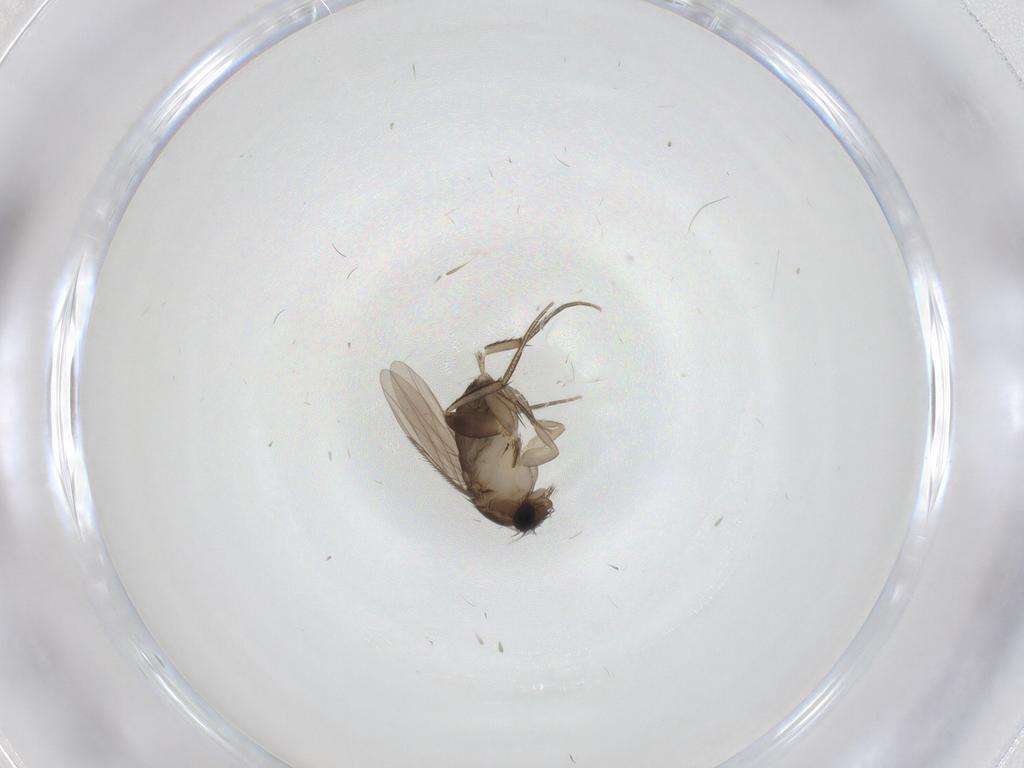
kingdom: Animalia
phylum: Arthropoda
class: Insecta
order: Diptera
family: Phoridae
